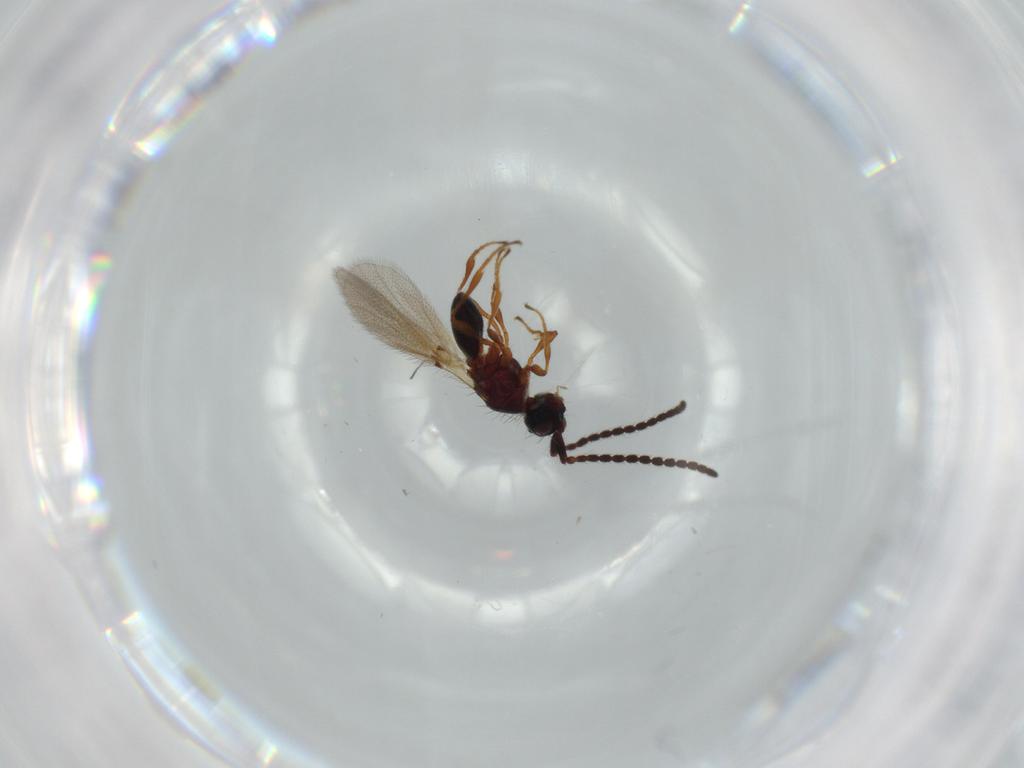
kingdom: Animalia
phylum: Arthropoda
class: Insecta
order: Hymenoptera
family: Diapriidae
